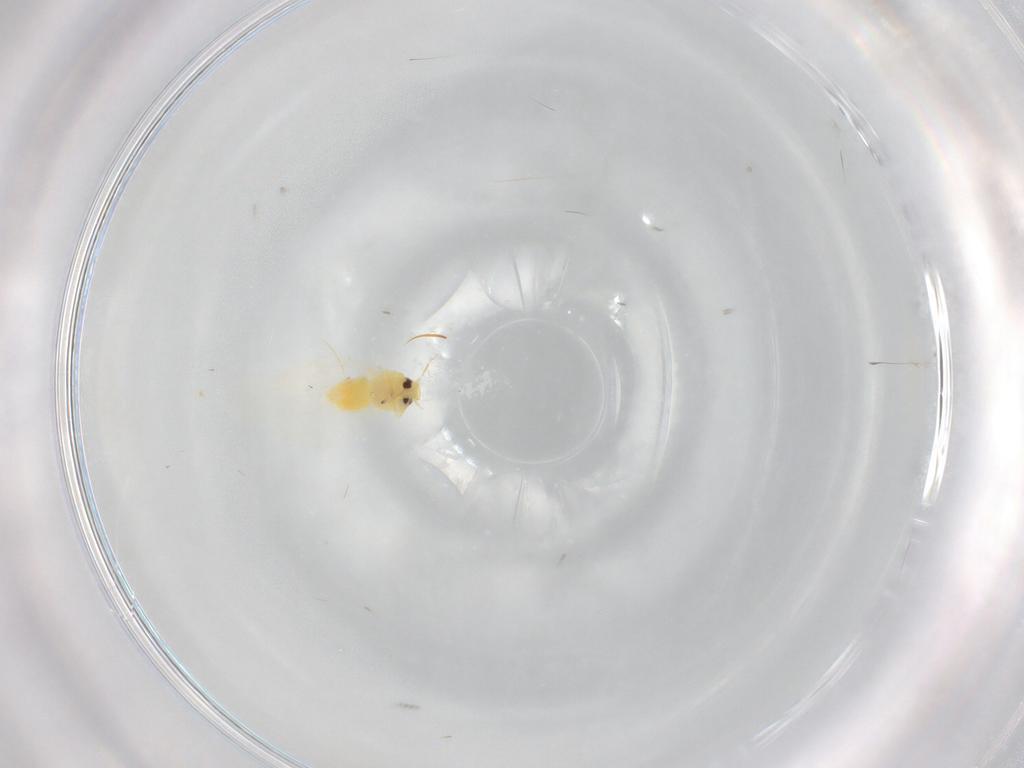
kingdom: Animalia
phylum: Arthropoda
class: Insecta
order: Hemiptera
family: Aleyrodidae
